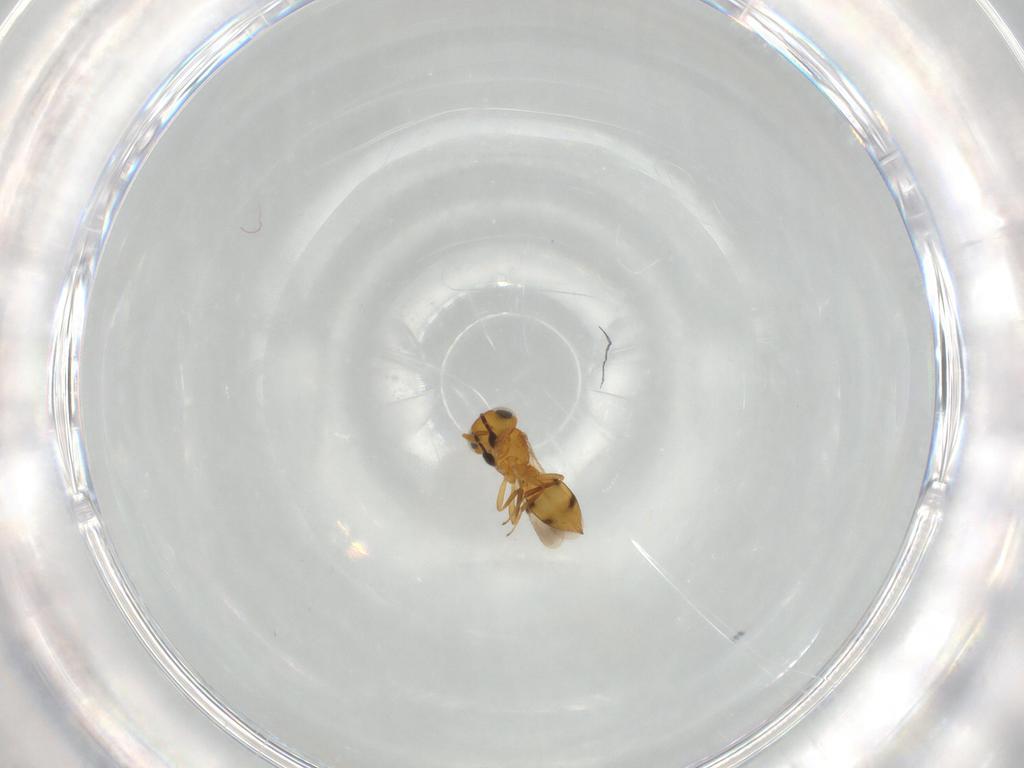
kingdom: Animalia
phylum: Arthropoda
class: Insecta
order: Hymenoptera
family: Scelionidae
